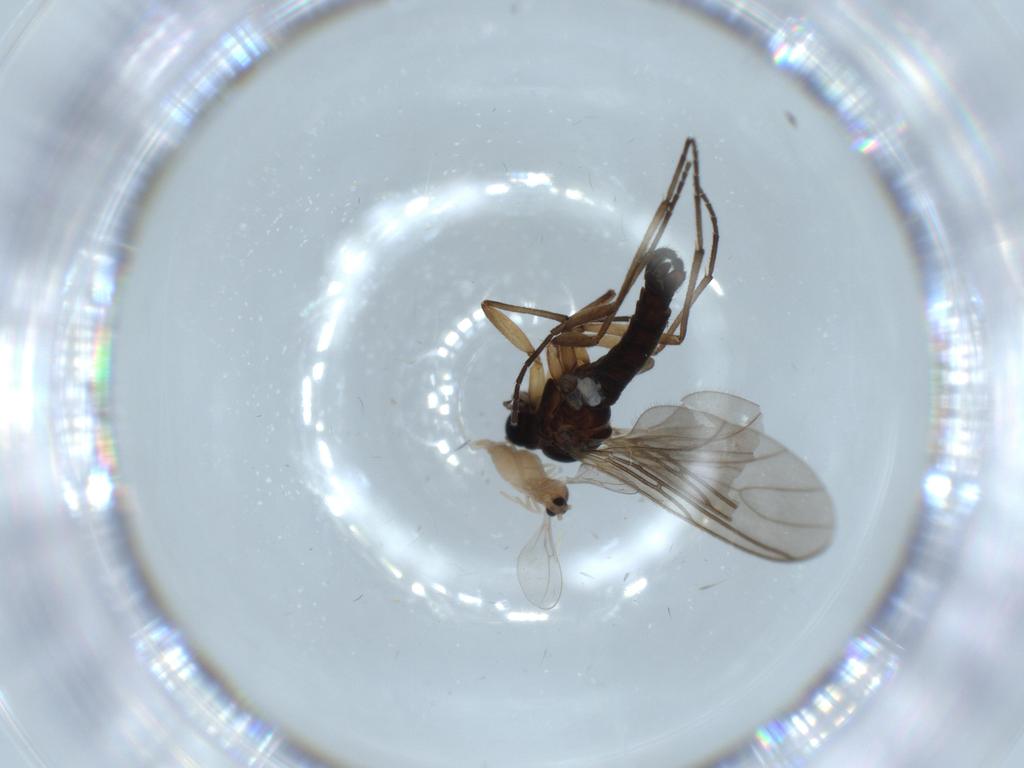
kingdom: Animalia
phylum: Arthropoda
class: Insecta
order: Diptera
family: Cecidomyiidae
